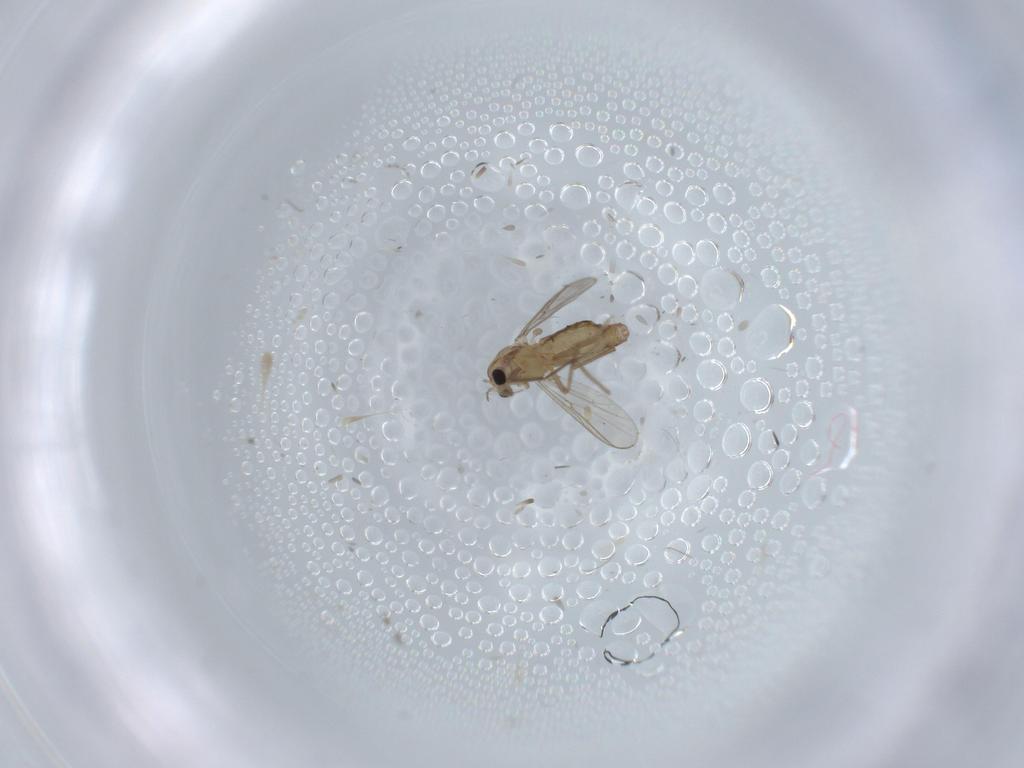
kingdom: Animalia
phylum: Arthropoda
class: Insecta
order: Diptera
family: Chironomidae
